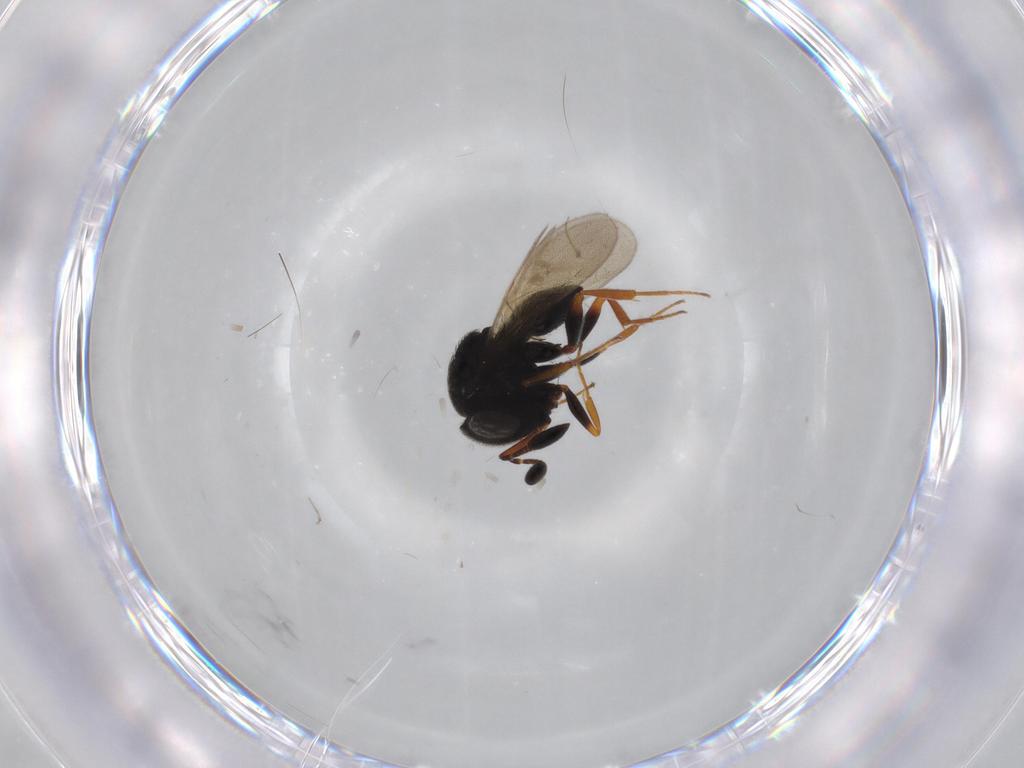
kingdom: Animalia
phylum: Arthropoda
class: Insecta
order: Hymenoptera
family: Scelionidae
